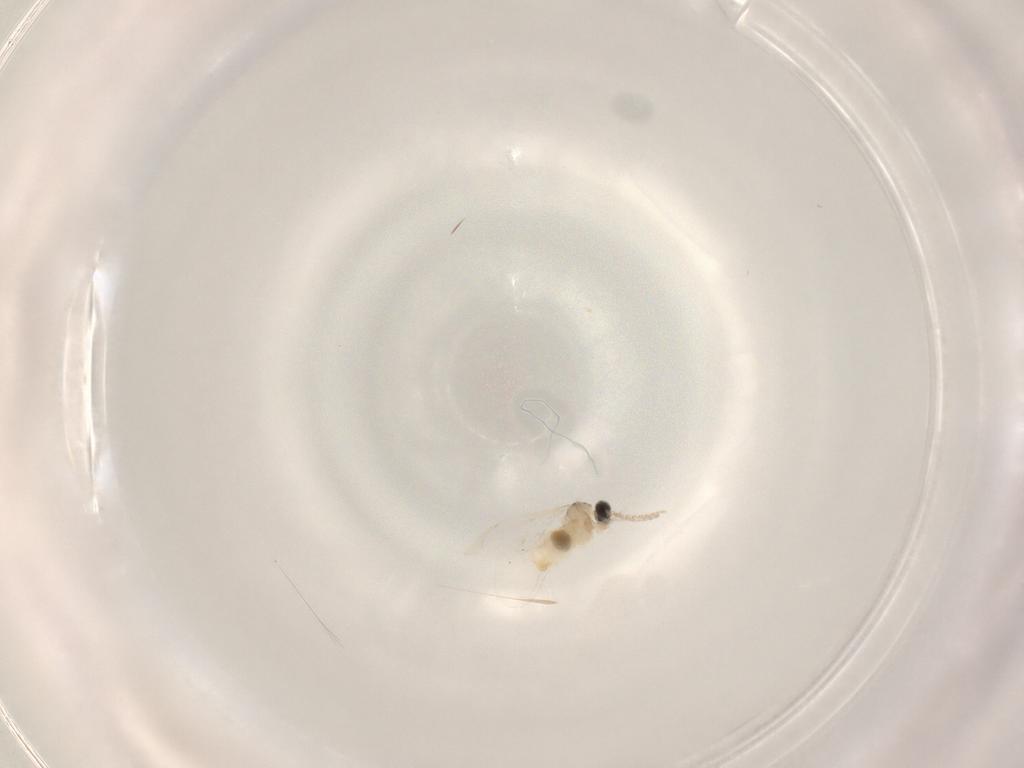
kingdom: Animalia
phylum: Arthropoda
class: Insecta
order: Diptera
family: Cecidomyiidae
